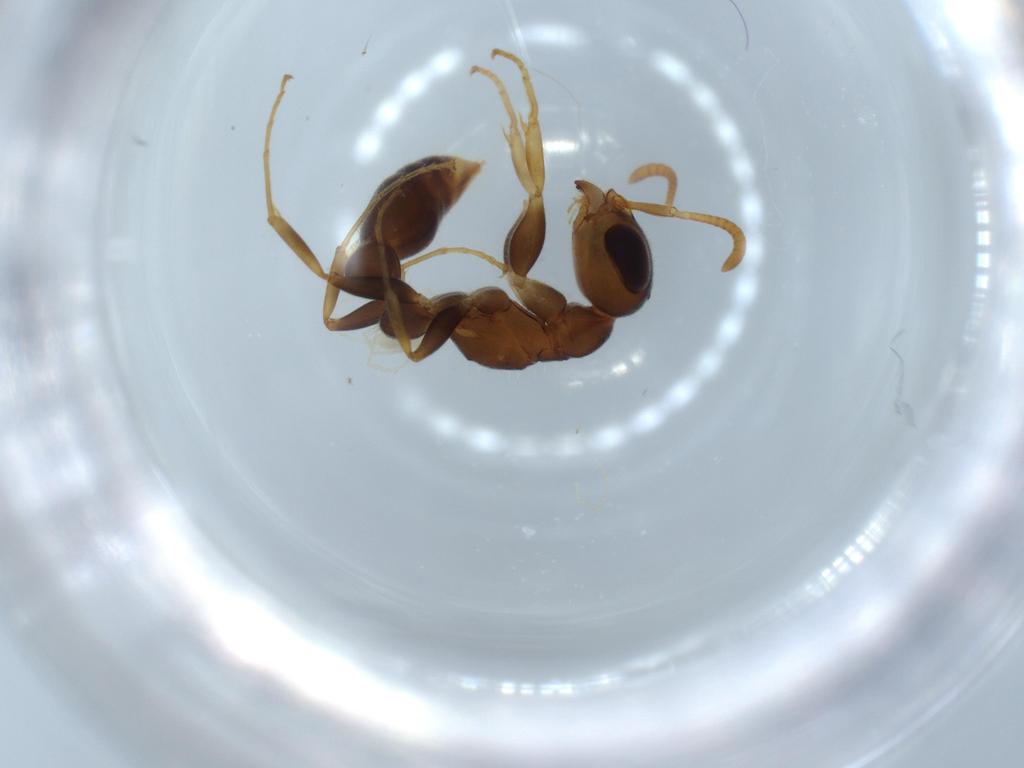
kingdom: Animalia
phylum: Arthropoda
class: Insecta
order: Hymenoptera
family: Formicidae
